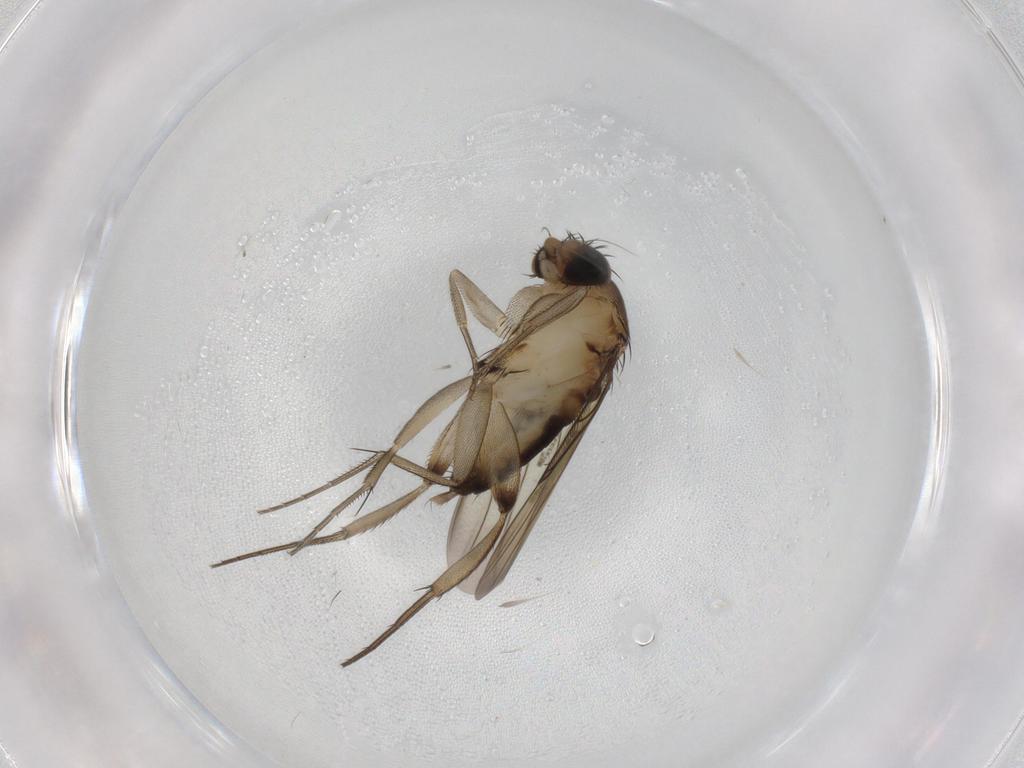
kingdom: Animalia
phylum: Arthropoda
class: Insecta
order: Diptera
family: Phoridae
